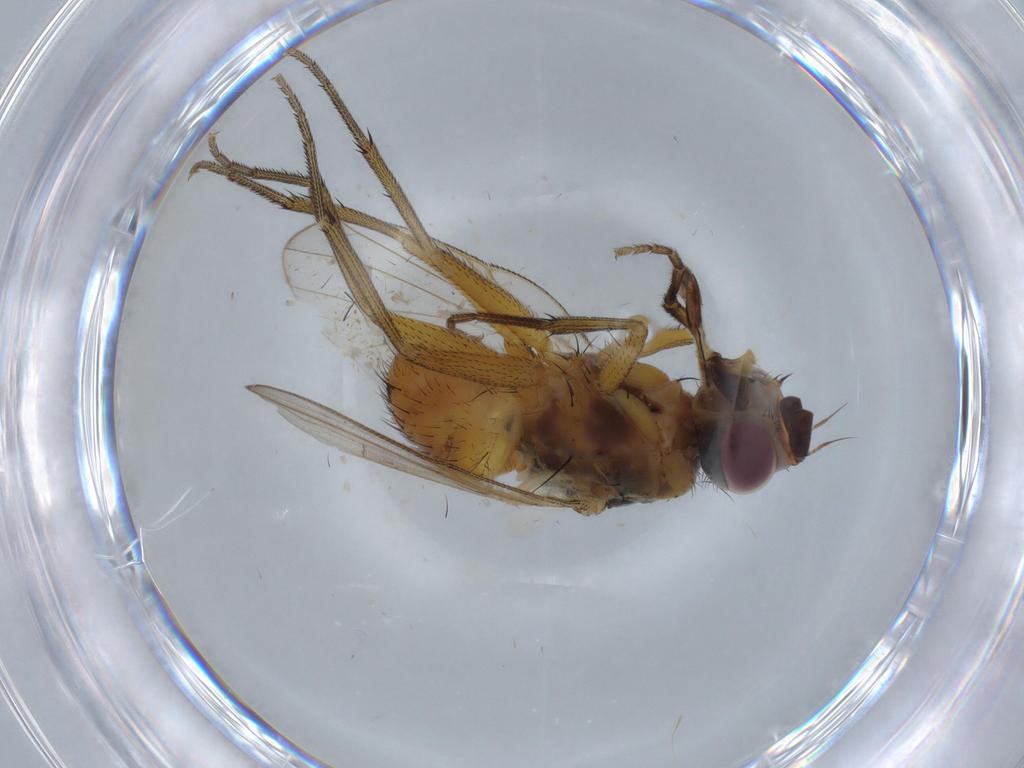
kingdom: Animalia
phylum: Arthropoda
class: Insecta
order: Diptera
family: Muscidae
